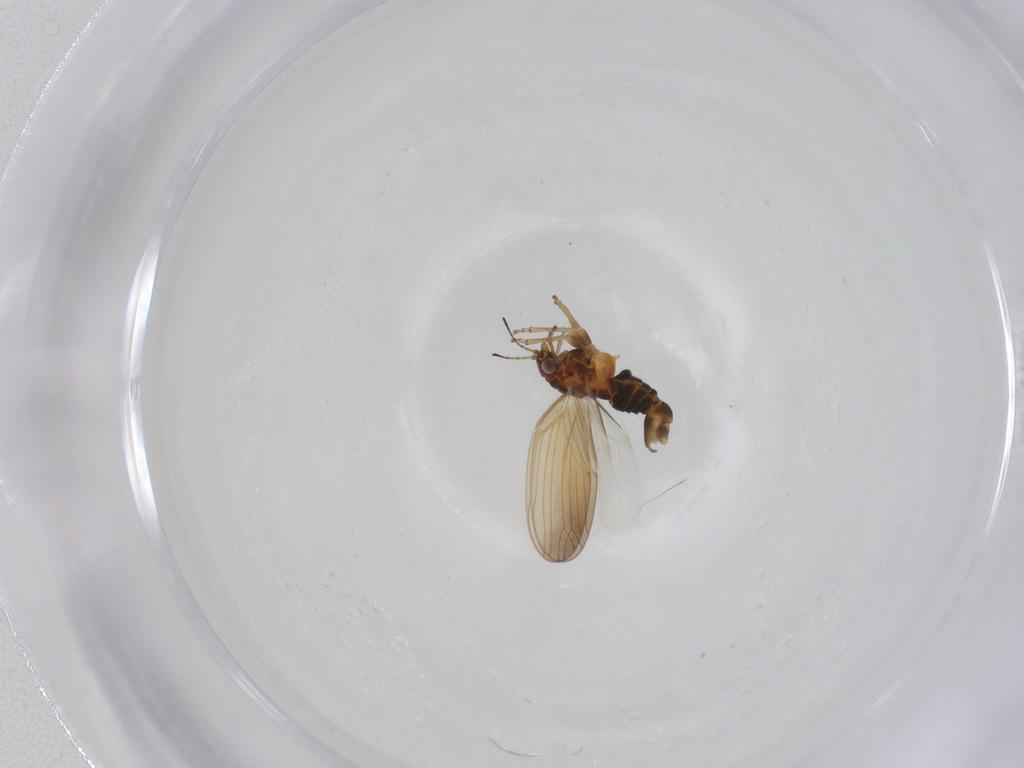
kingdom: Animalia
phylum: Arthropoda
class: Insecta
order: Hemiptera
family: Aphalaridae
